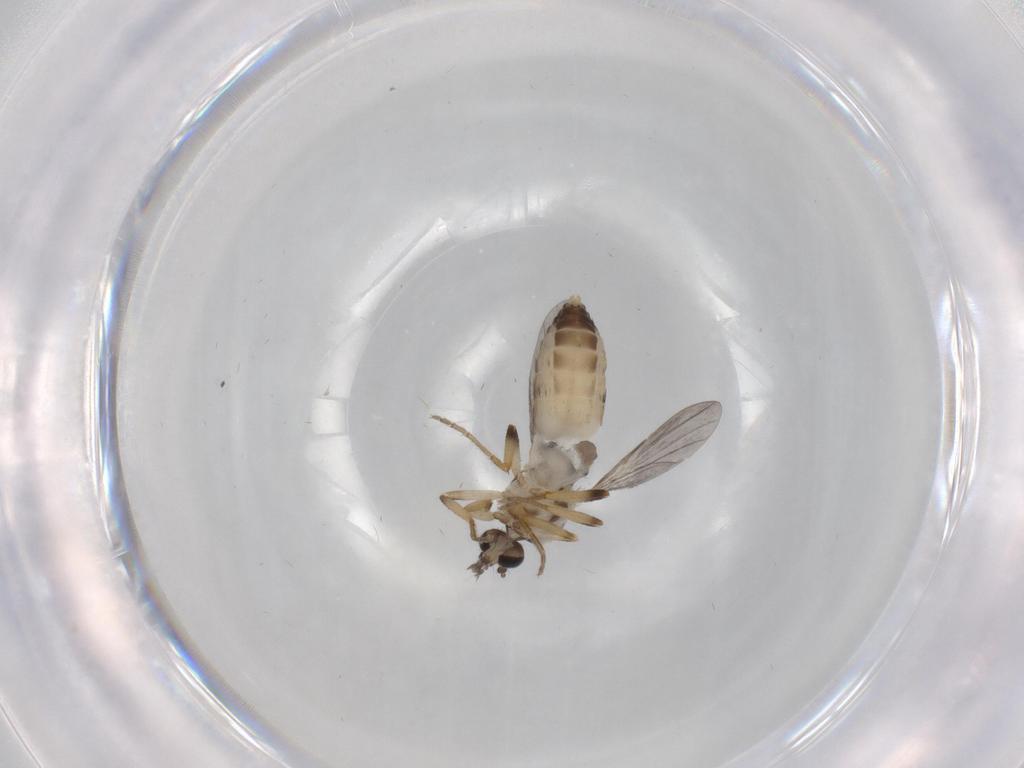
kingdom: Animalia
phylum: Arthropoda
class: Insecta
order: Diptera
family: Ceratopogonidae
